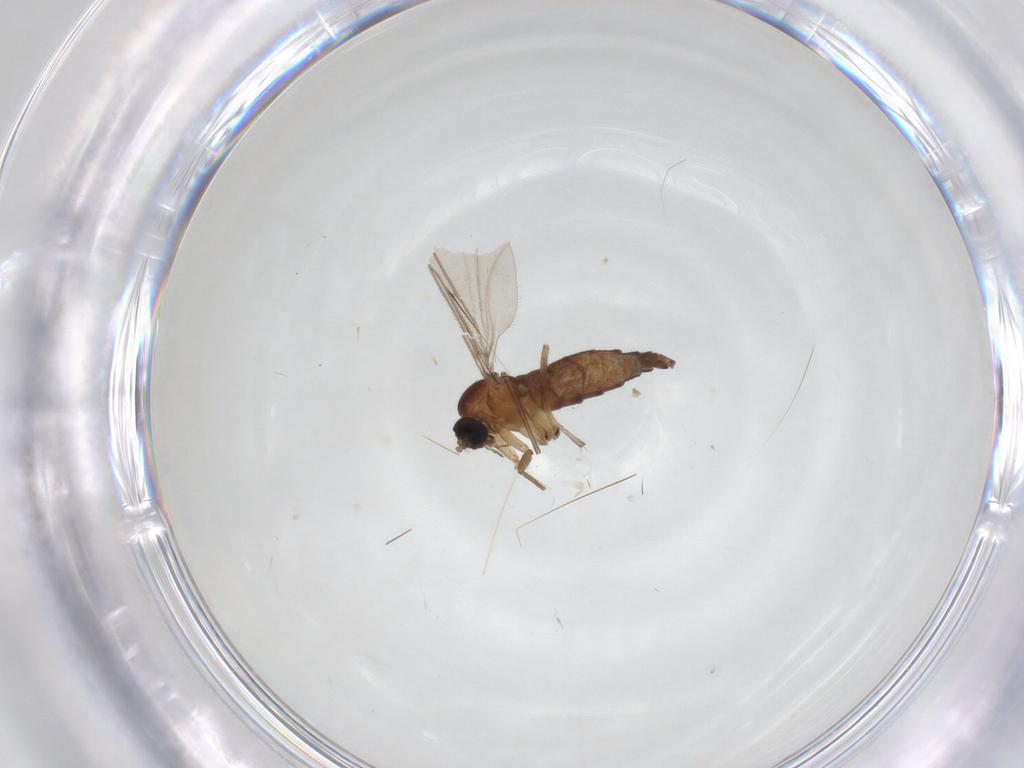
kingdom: Animalia
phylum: Arthropoda
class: Insecta
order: Diptera
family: Sciaridae
